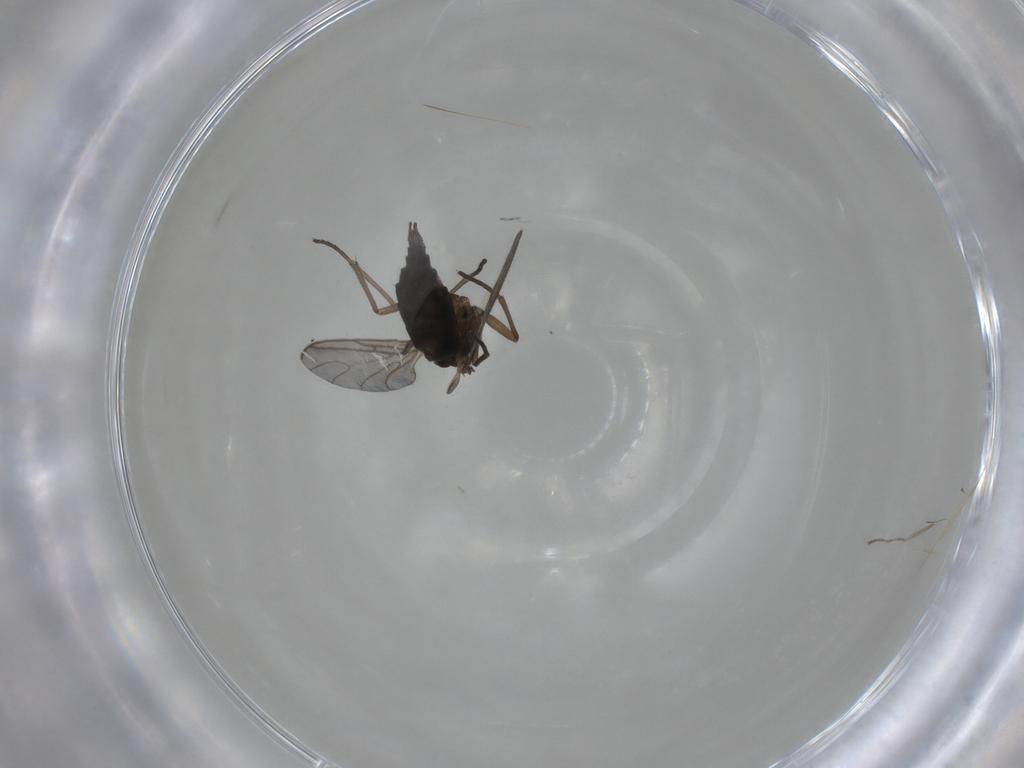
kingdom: Animalia
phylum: Arthropoda
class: Insecta
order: Diptera
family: Sciaridae
